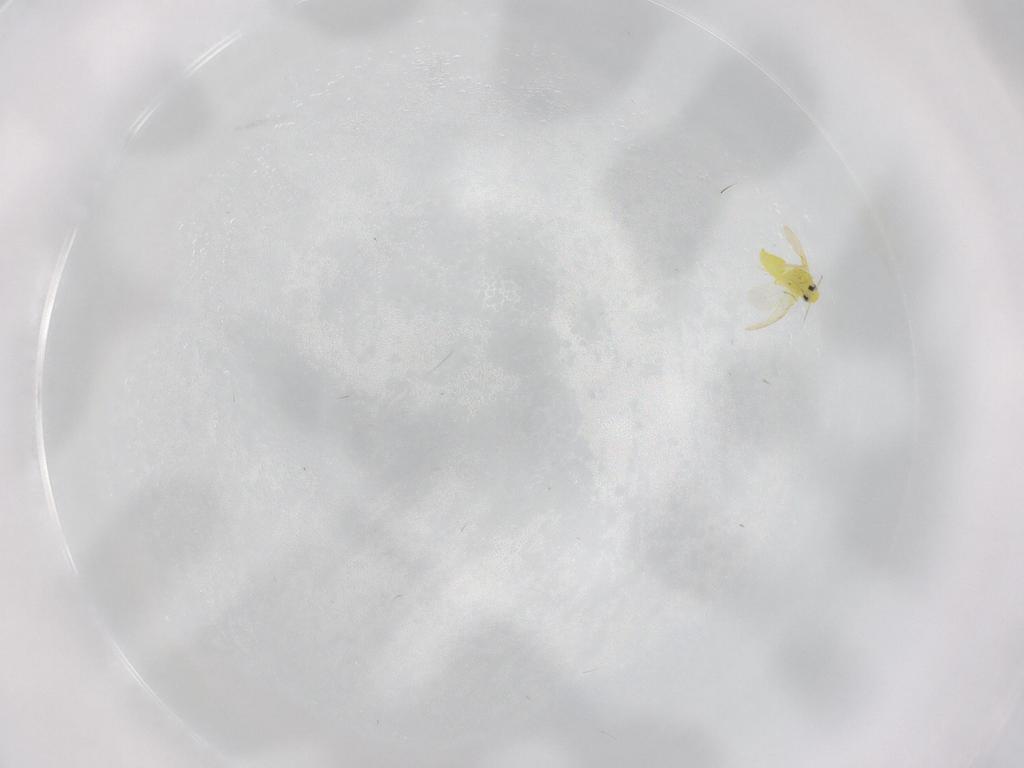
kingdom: Animalia
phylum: Arthropoda
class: Insecta
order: Hemiptera
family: Aleyrodidae
